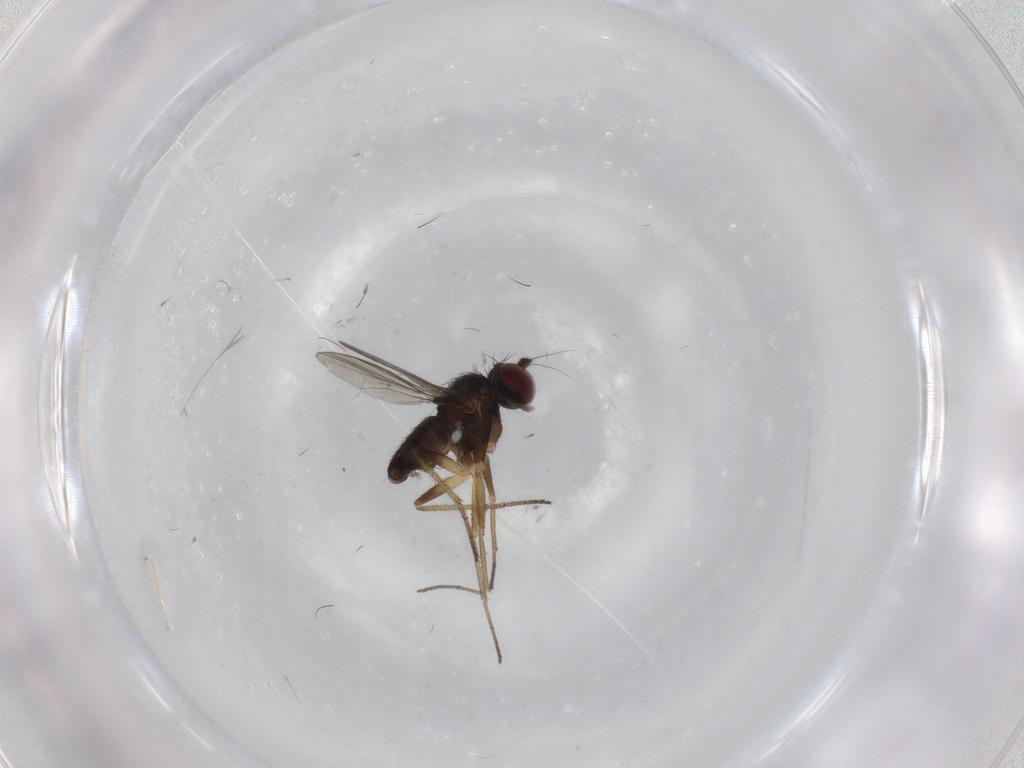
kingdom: Animalia
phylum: Arthropoda
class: Insecta
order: Diptera
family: Dolichopodidae
